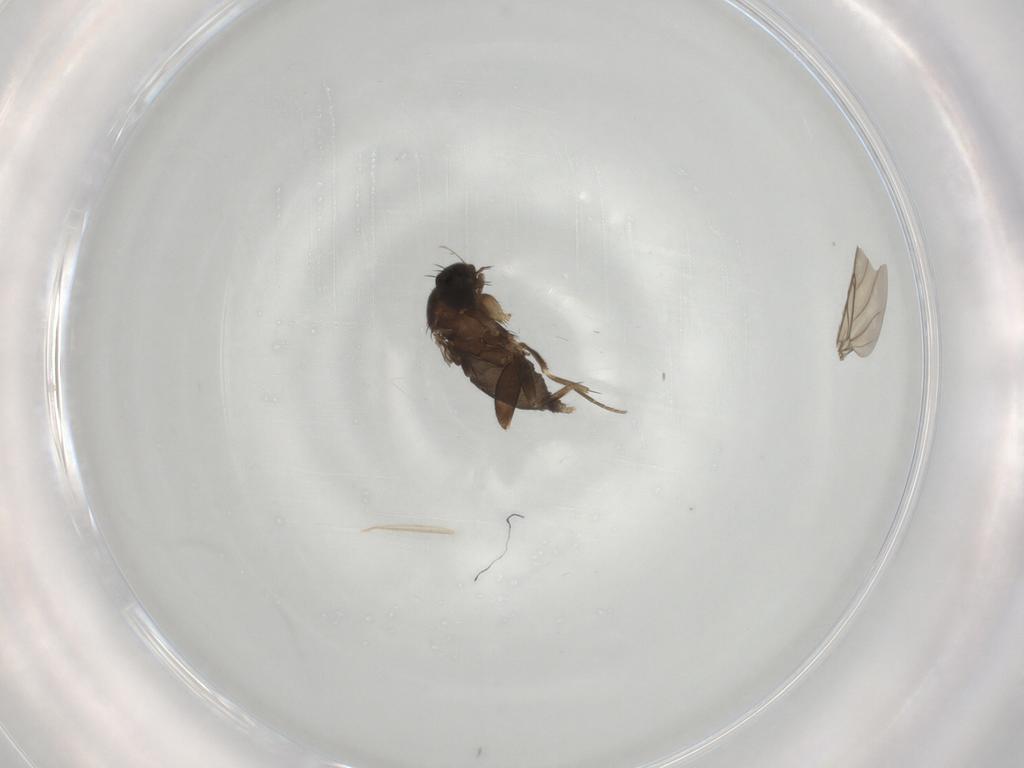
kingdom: Animalia
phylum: Arthropoda
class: Insecta
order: Diptera
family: Phoridae
